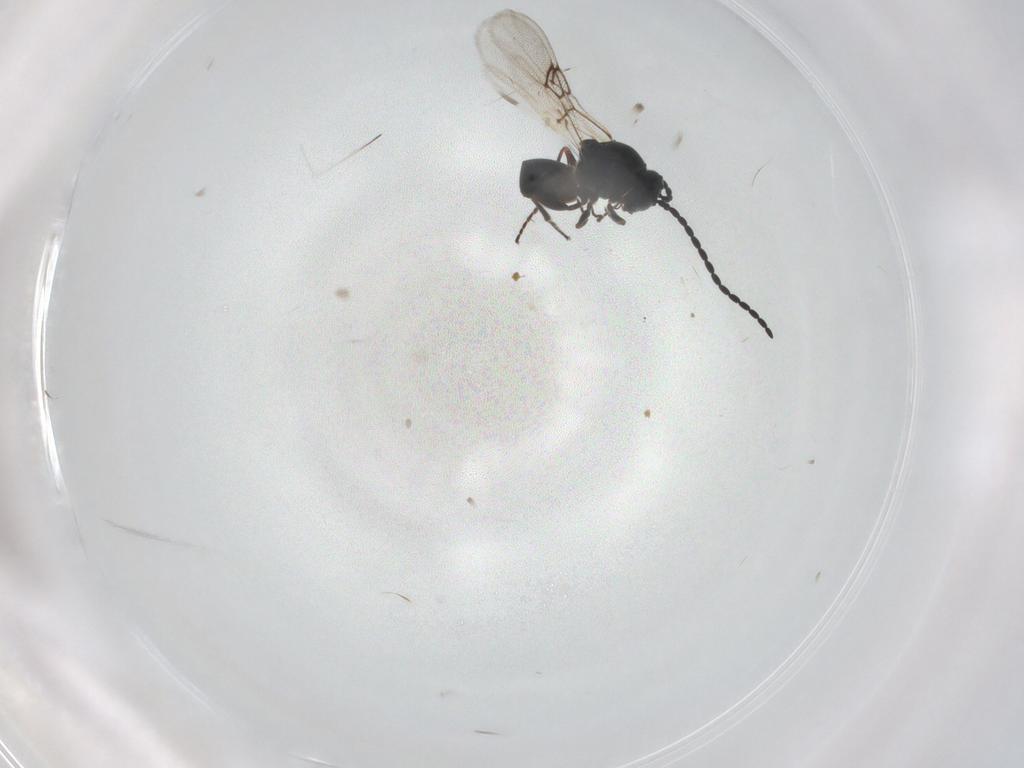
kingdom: Animalia
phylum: Arthropoda
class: Insecta
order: Hymenoptera
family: Figitidae
